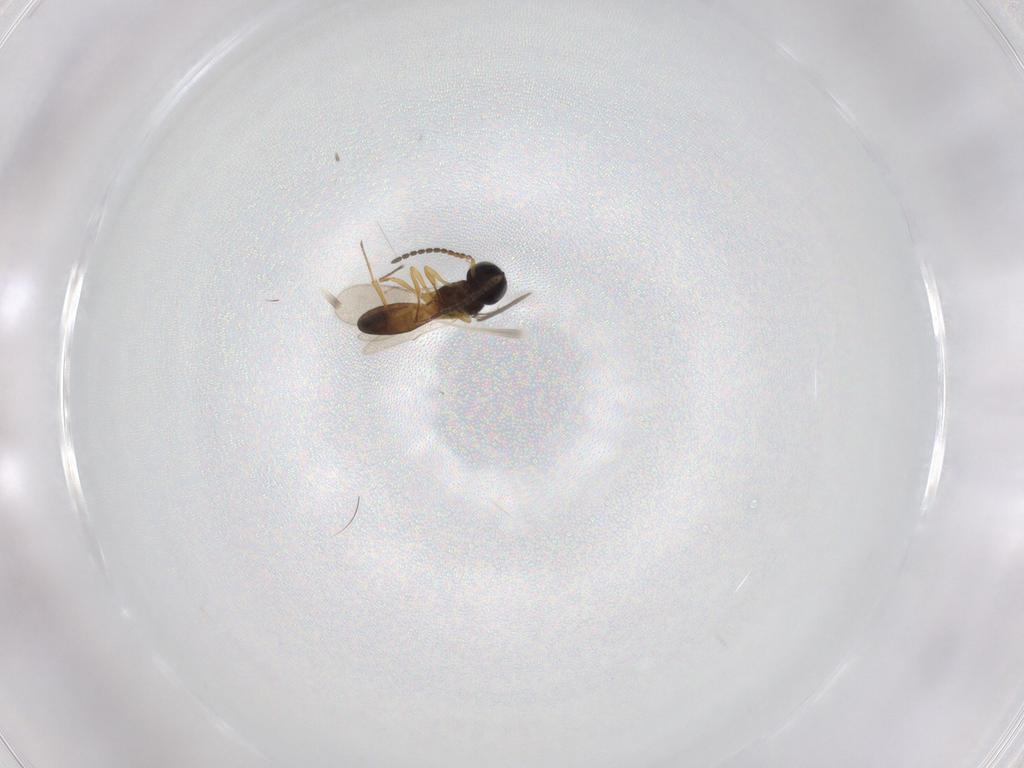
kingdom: Animalia
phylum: Arthropoda
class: Insecta
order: Hymenoptera
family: Scelionidae
